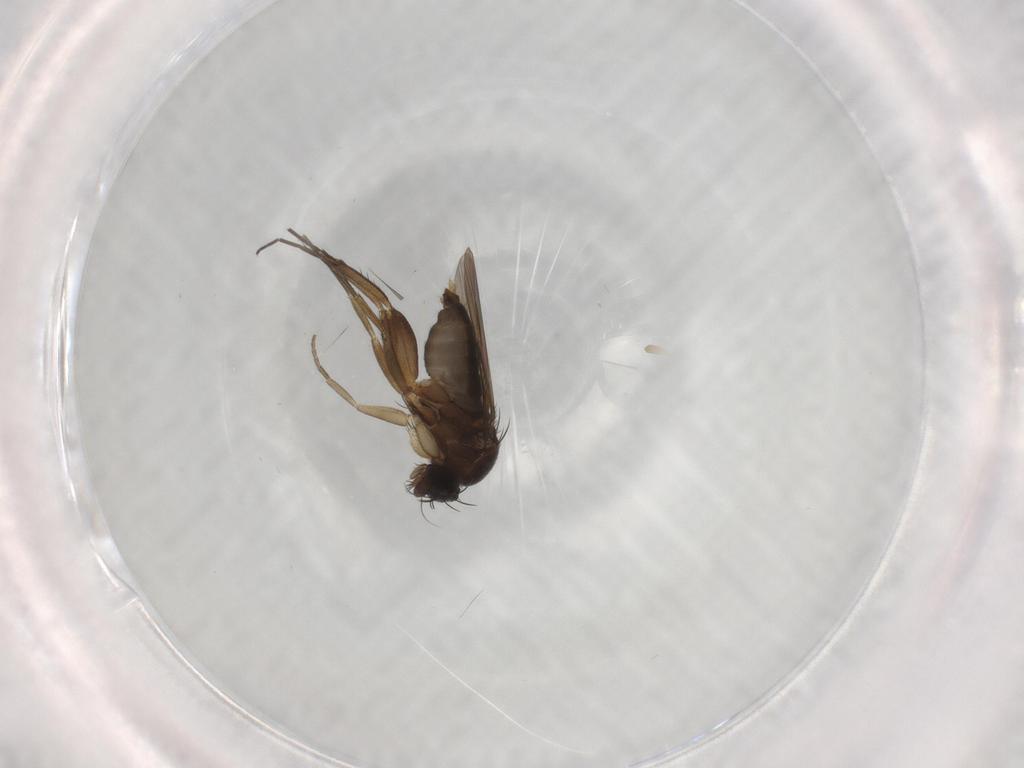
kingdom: Animalia
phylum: Arthropoda
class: Insecta
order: Diptera
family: Phoridae
